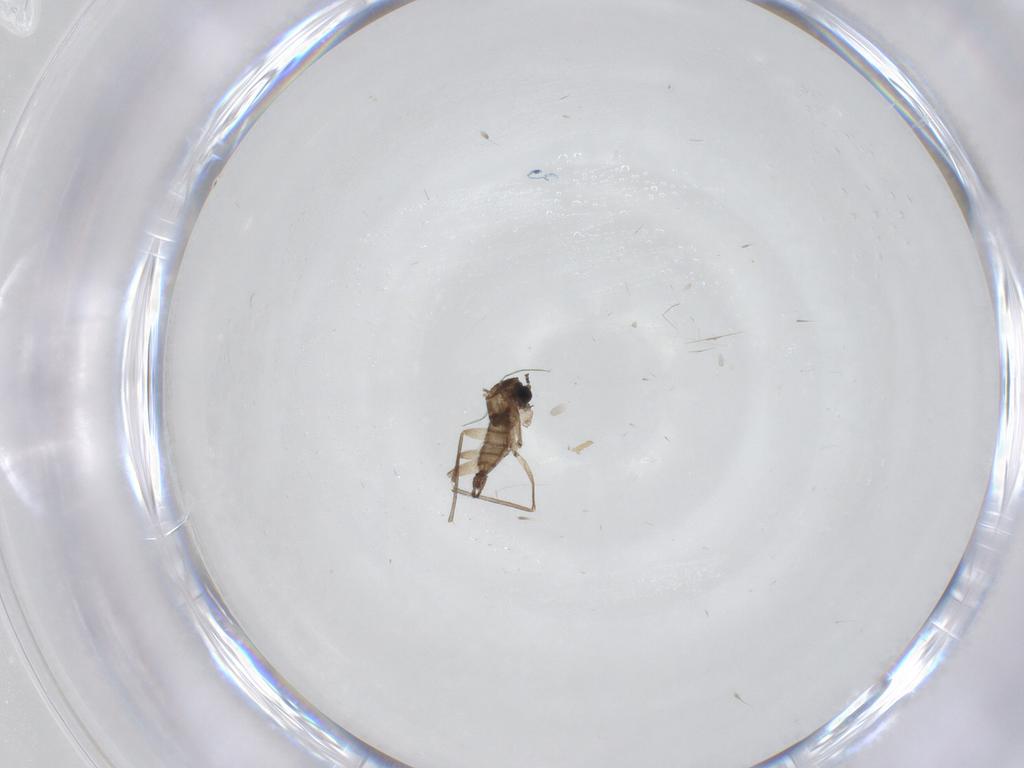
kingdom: Animalia
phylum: Arthropoda
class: Insecta
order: Diptera
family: Sciaridae
